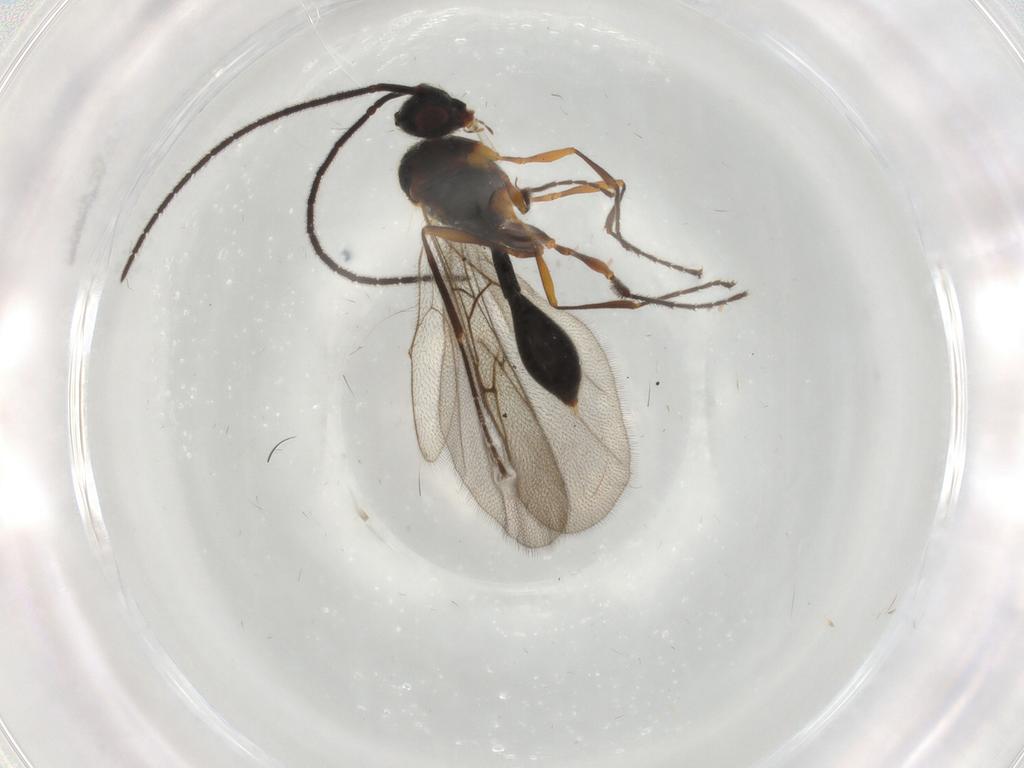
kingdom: Animalia
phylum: Arthropoda
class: Insecta
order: Hymenoptera
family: Scelionidae
